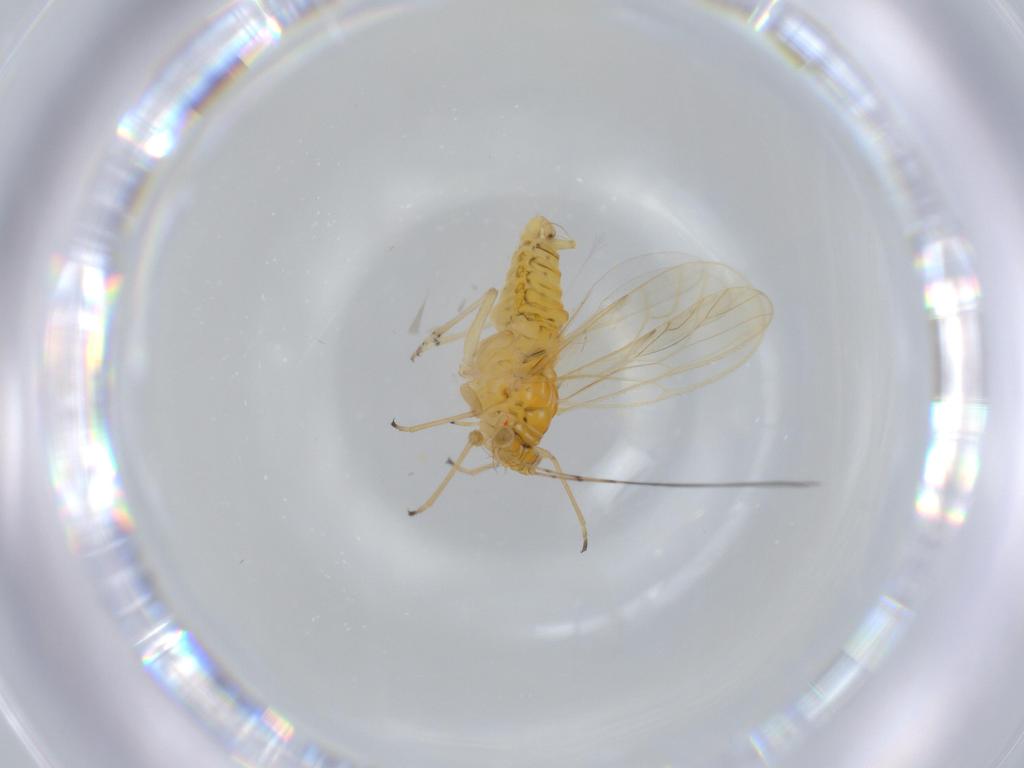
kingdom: Animalia
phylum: Arthropoda
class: Insecta
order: Hemiptera
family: Psyllidae
